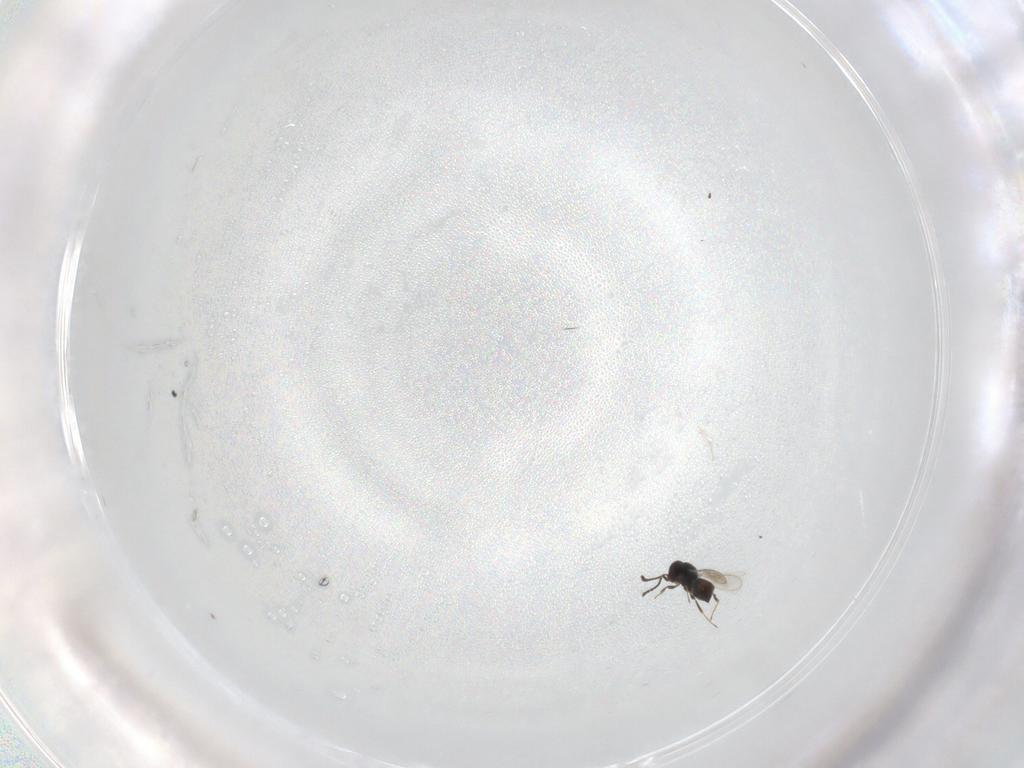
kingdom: Animalia
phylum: Arthropoda
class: Insecta
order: Hymenoptera
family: Scelionidae
